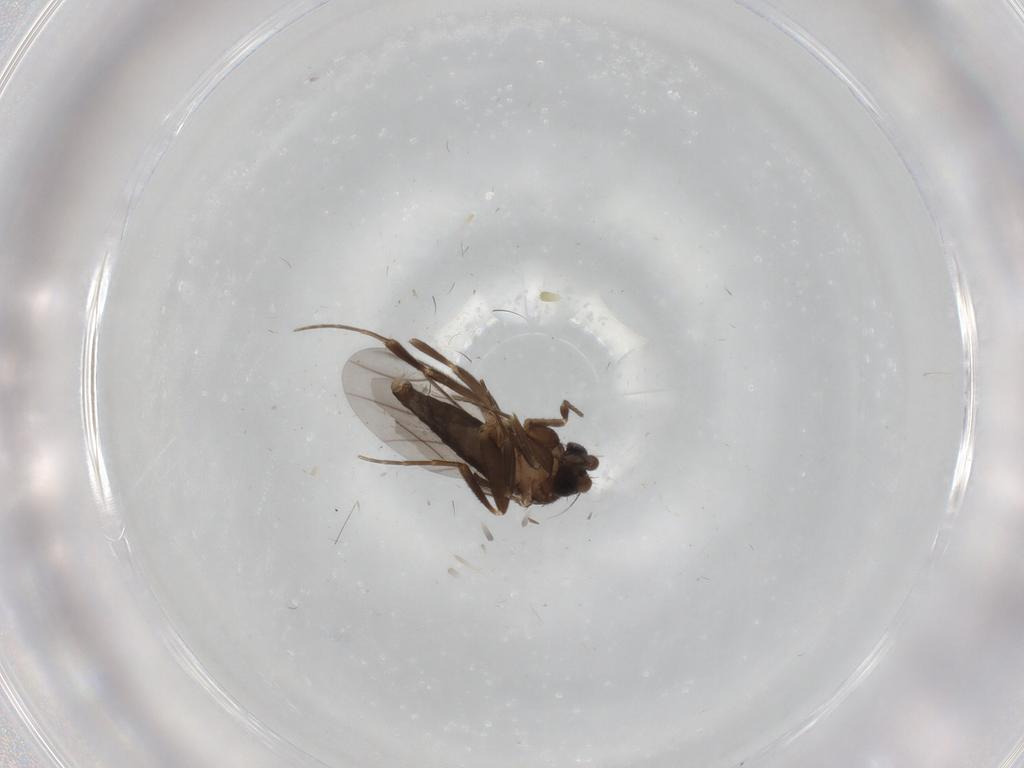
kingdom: Animalia
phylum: Arthropoda
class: Insecta
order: Diptera
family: Phoridae
